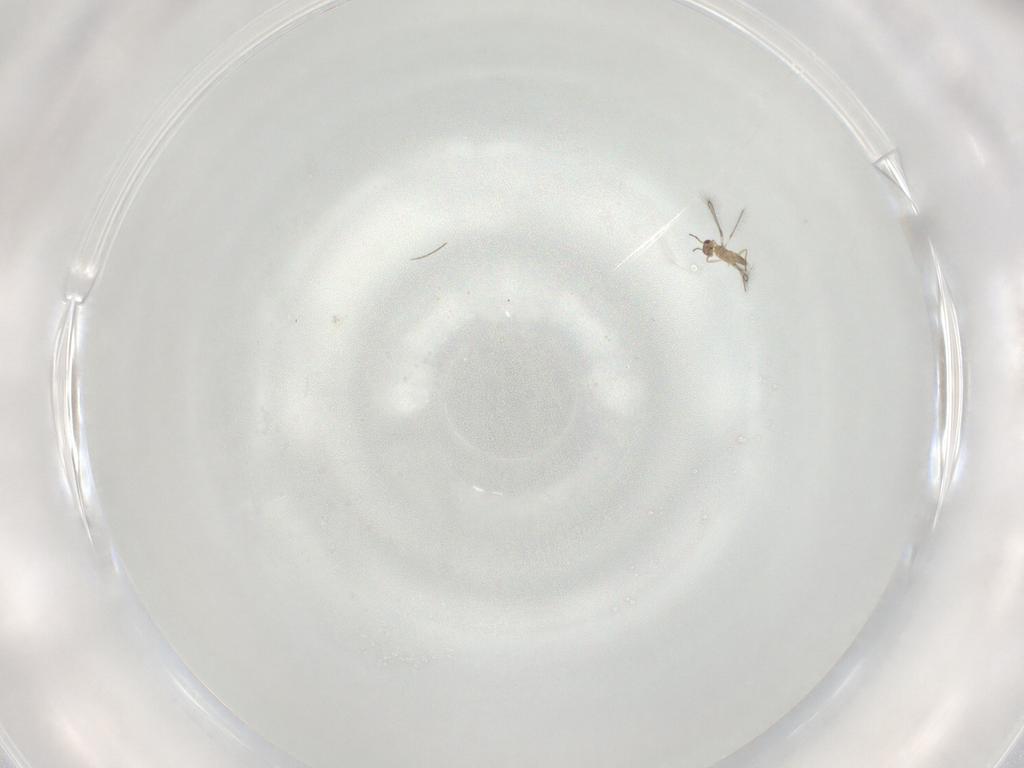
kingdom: Animalia
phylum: Arthropoda
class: Insecta
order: Hymenoptera
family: Mymaridae
